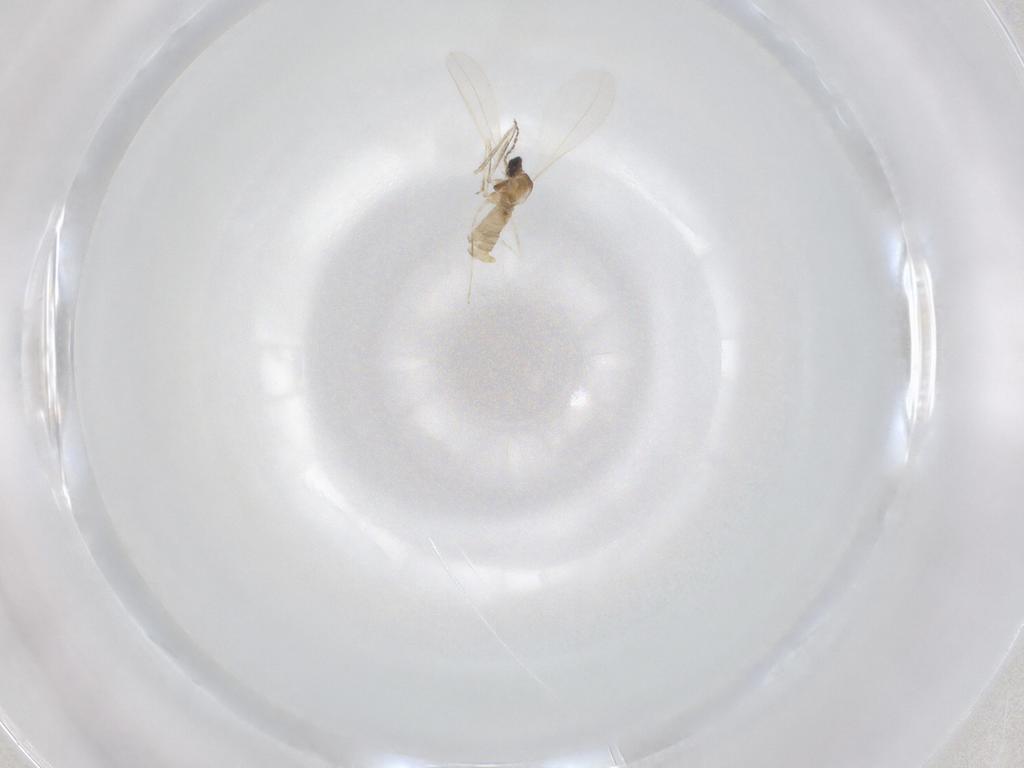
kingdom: Animalia
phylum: Arthropoda
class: Insecta
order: Diptera
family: Cecidomyiidae
